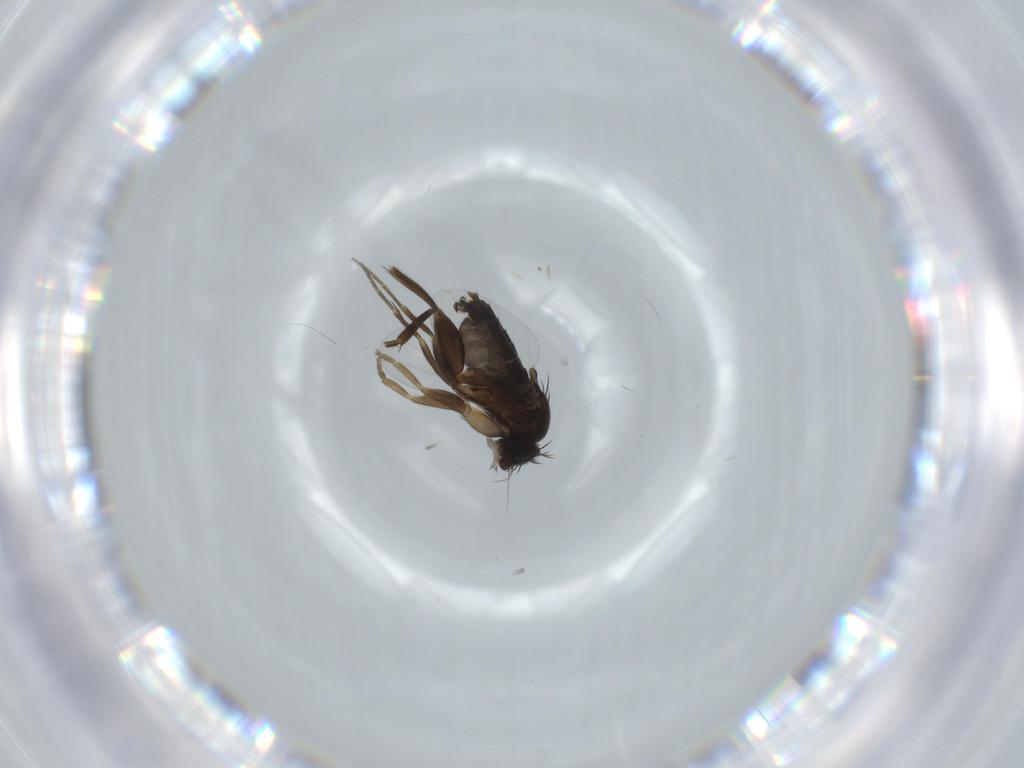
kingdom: Animalia
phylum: Arthropoda
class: Insecta
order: Diptera
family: Phoridae
